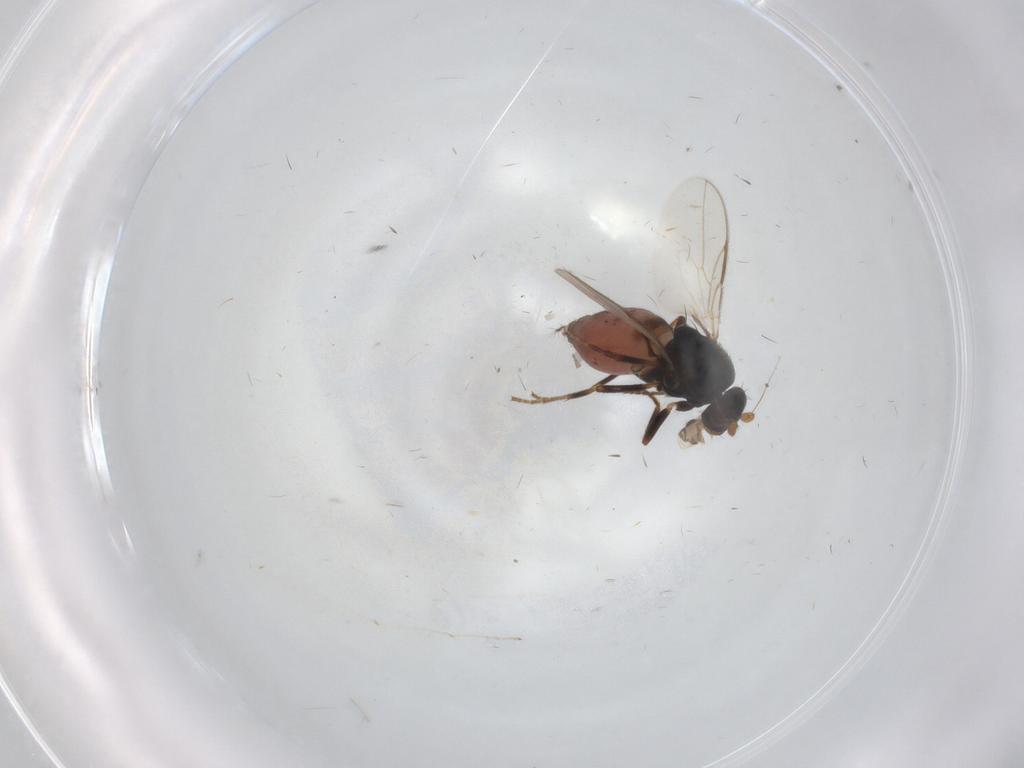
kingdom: Animalia
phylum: Arthropoda
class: Insecta
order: Diptera
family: Sphaeroceridae
